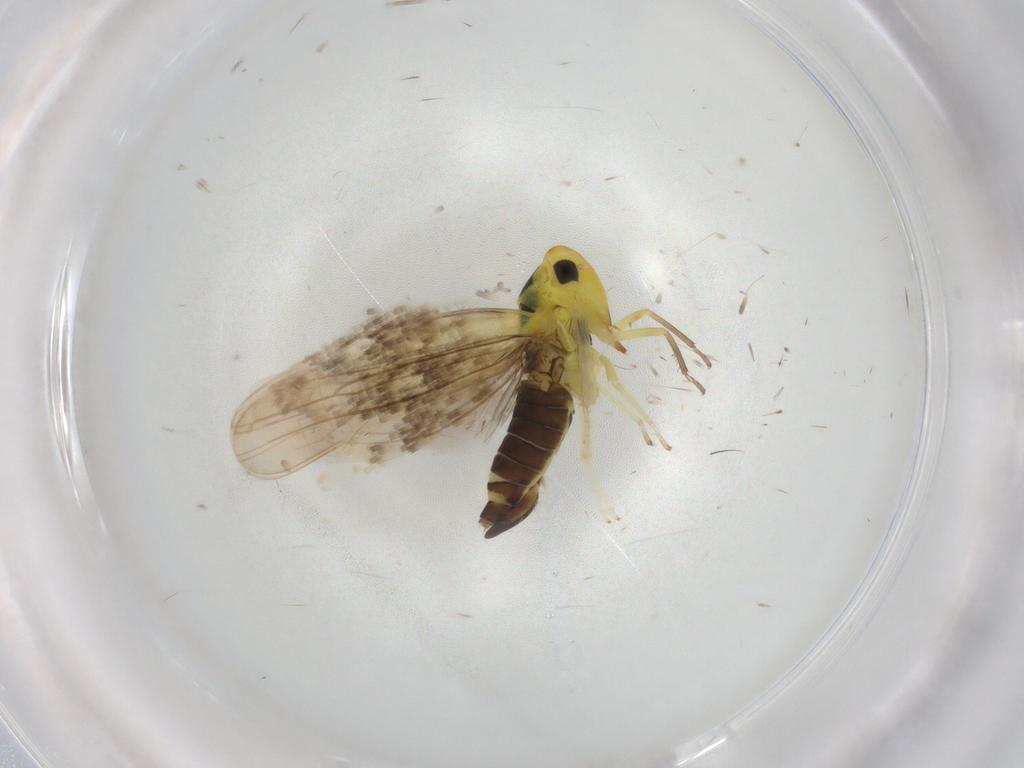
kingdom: Animalia
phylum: Arthropoda
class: Insecta
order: Hemiptera
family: Cicadellidae
